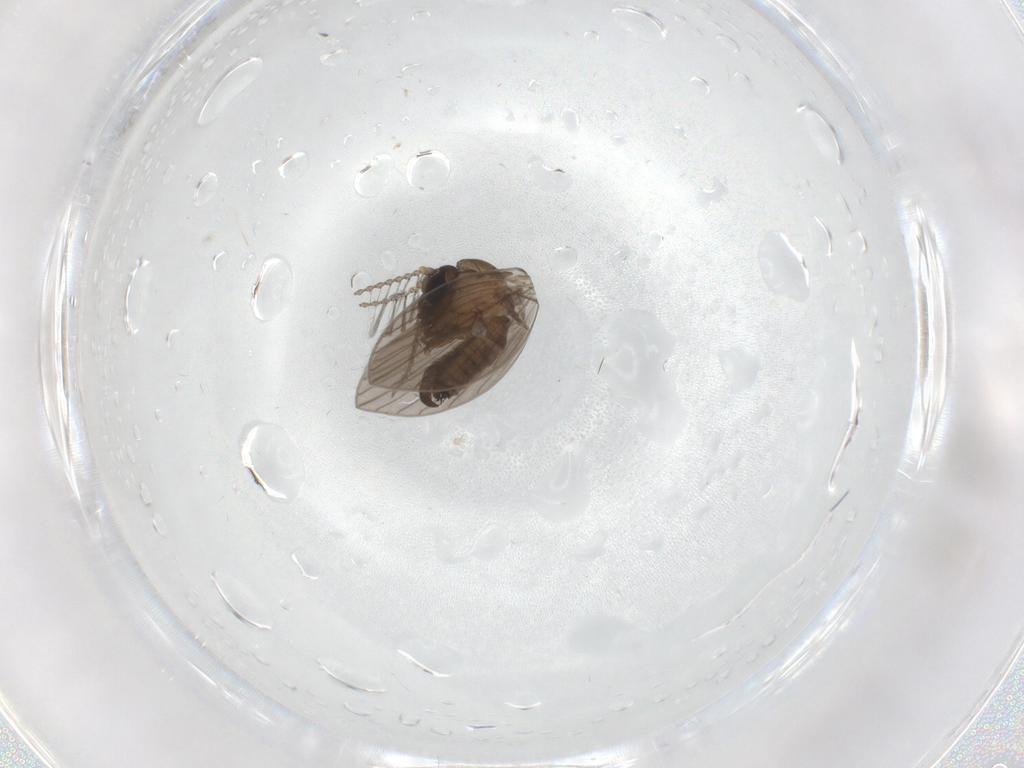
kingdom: Animalia
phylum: Arthropoda
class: Insecta
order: Diptera
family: Psychodidae
